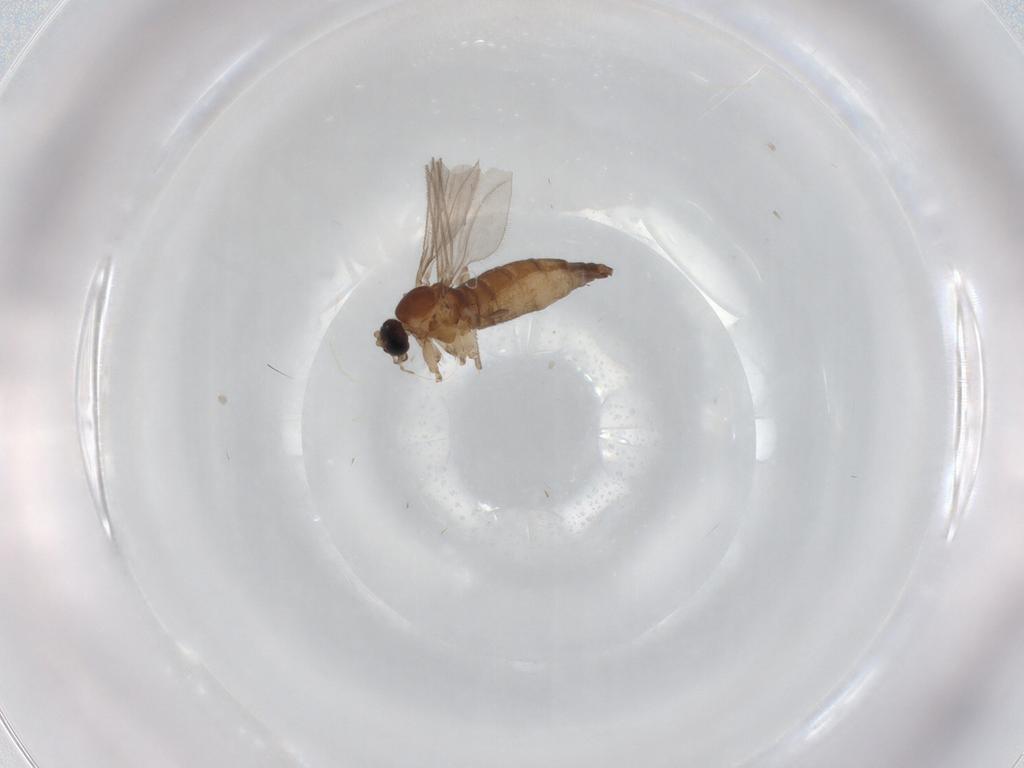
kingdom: Animalia
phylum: Arthropoda
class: Insecta
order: Diptera
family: Sciaridae
